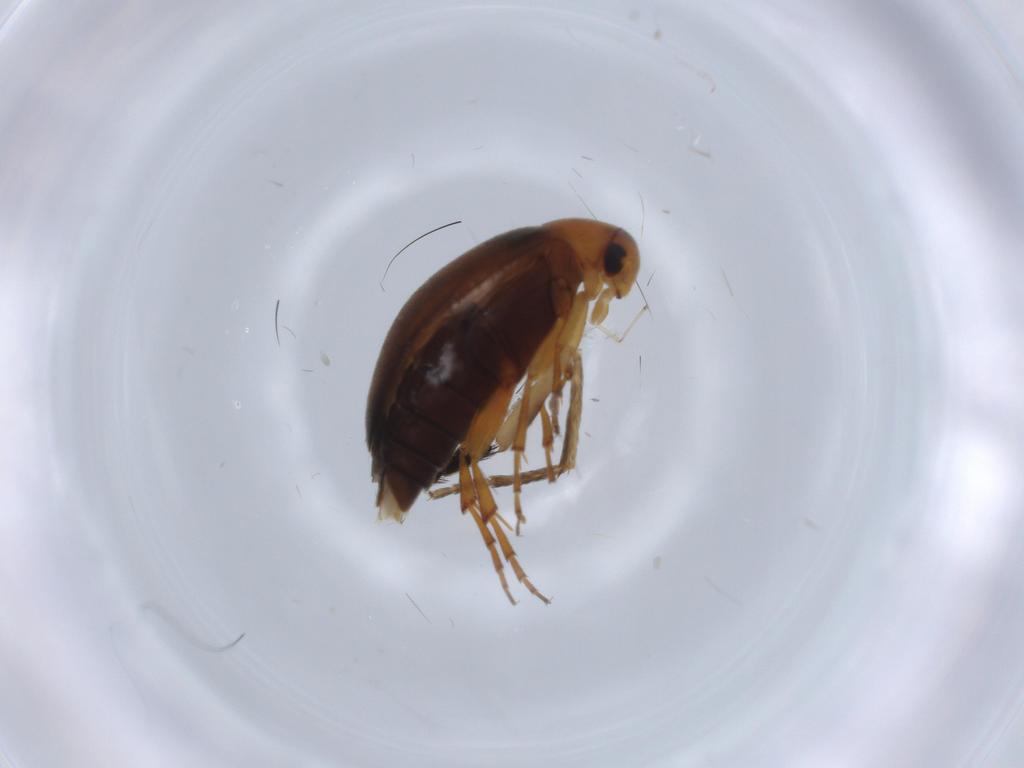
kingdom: Animalia
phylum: Arthropoda
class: Insecta
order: Coleoptera
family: Scraptiidae
